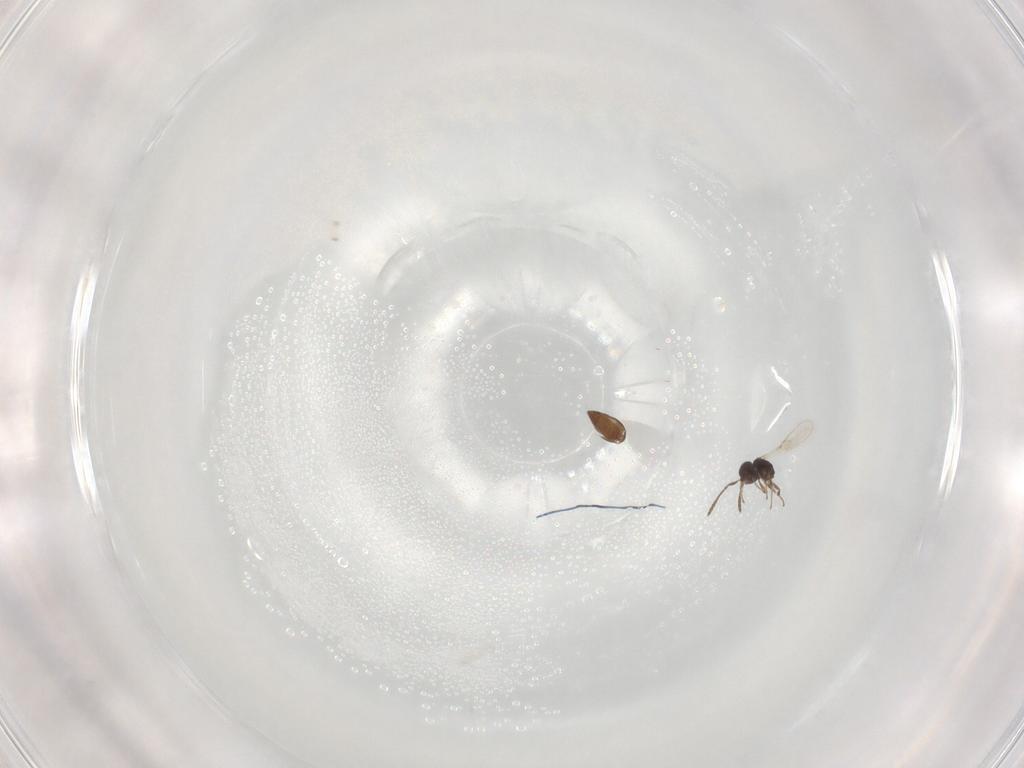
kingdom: Animalia
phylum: Arthropoda
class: Insecta
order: Hymenoptera
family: Scelionidae
